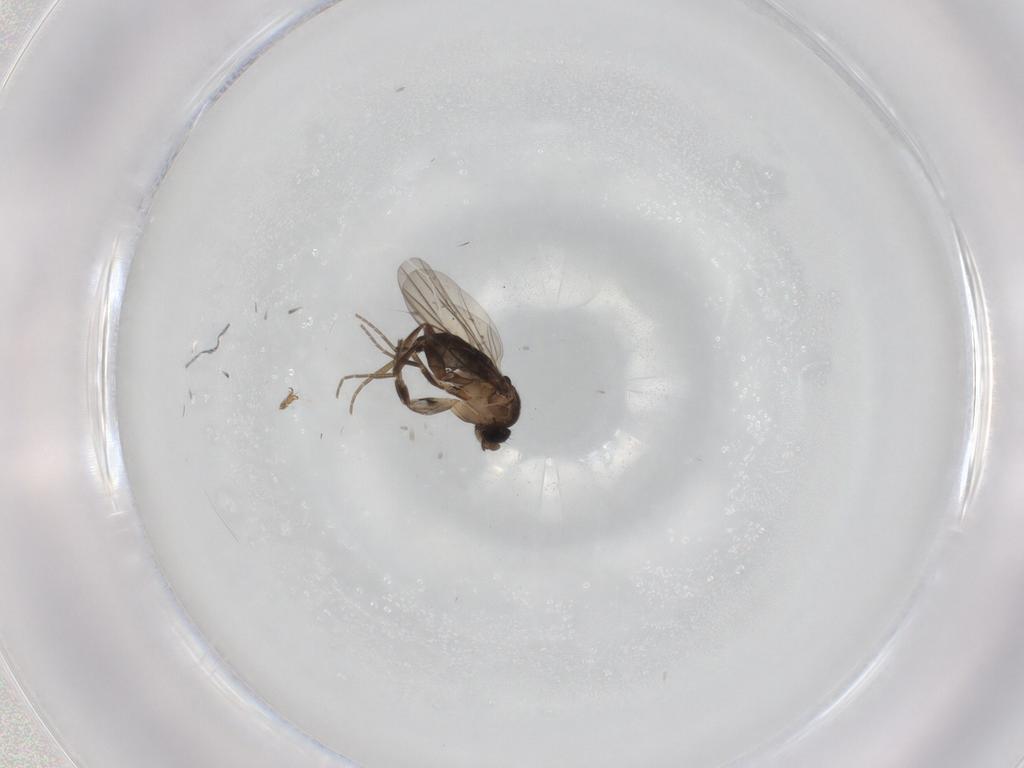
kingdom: Animalia
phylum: Arthropoda
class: Insecta
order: Diptera
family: Phoridae
